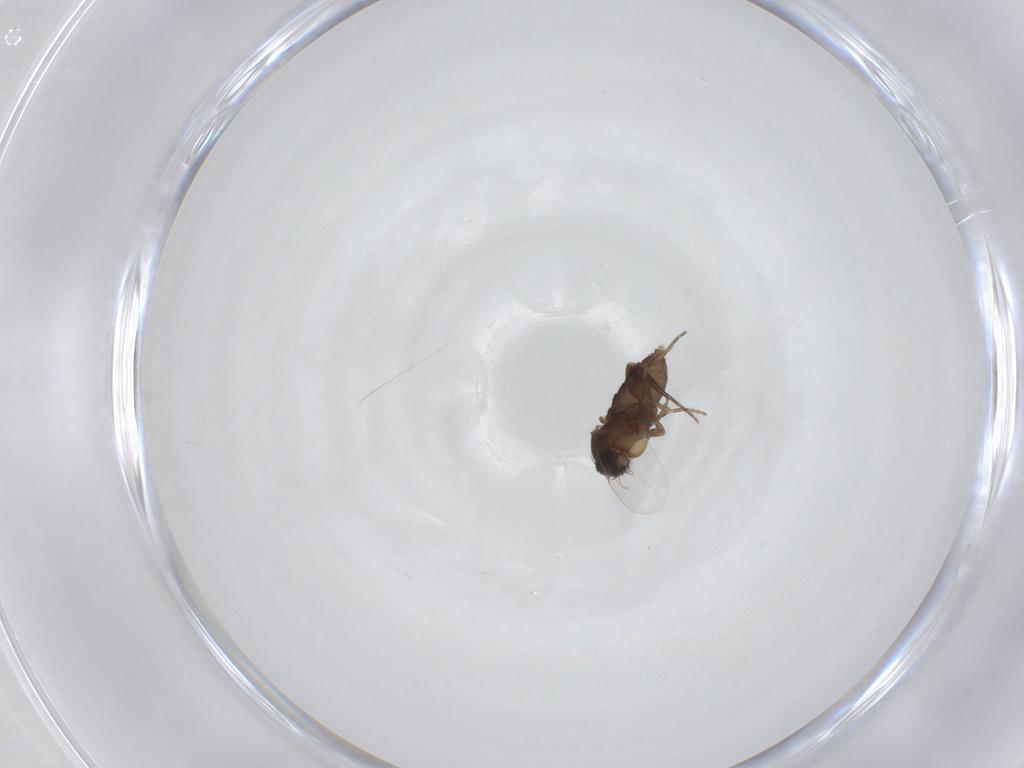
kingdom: Animalia
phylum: Arthropoda
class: Insecta
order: Diptera
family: Phoridae
